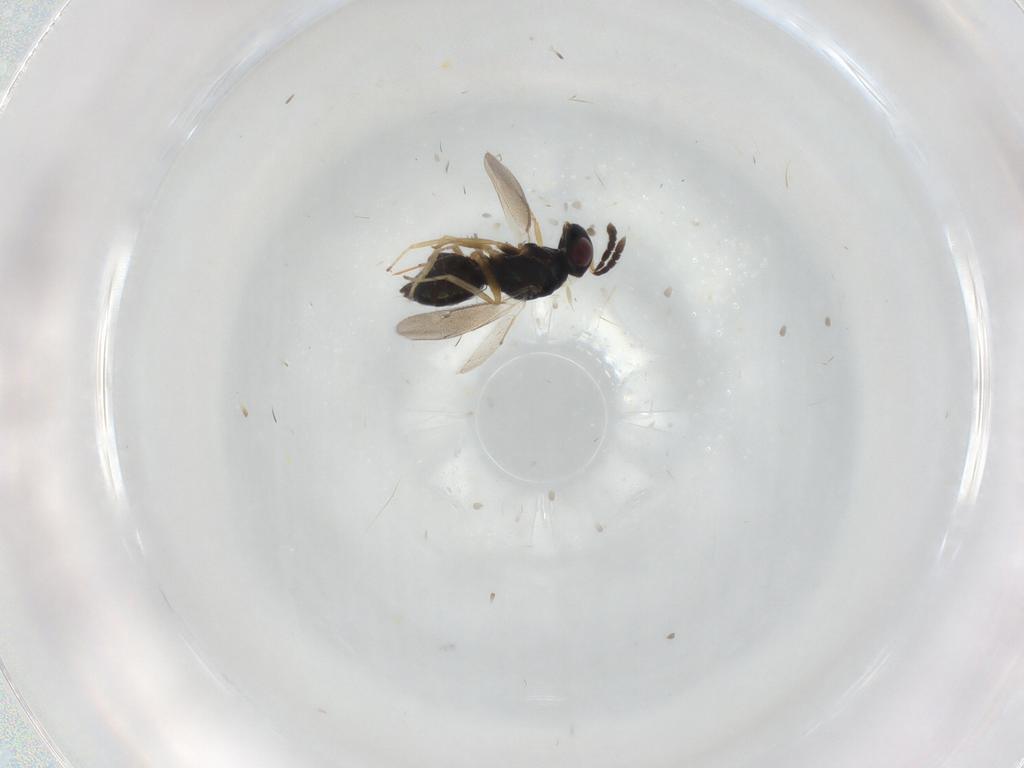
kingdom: Animalia
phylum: Arthropoda
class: Insecta
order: Hymenoptera
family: Eulophidae
